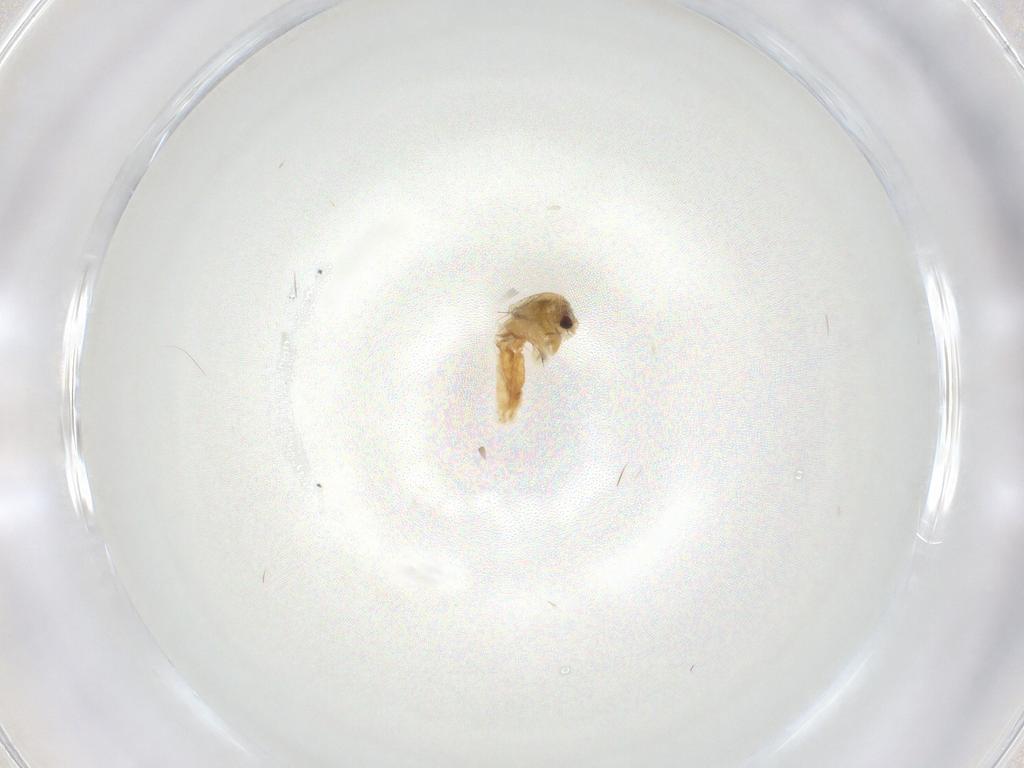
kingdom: Animalia
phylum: Arthropoda
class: Insecta
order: Diptera
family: Chironomidae
